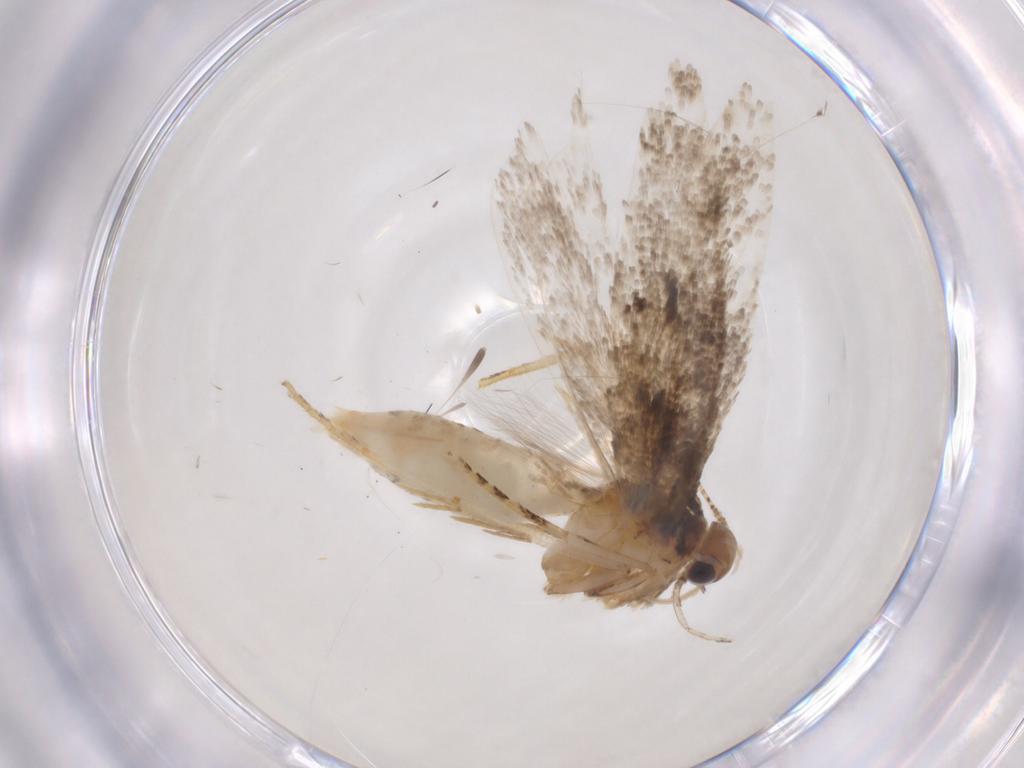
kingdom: Animalia
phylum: Arthropoda
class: Insecta
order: Lepidoptera
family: Gelechiidae
